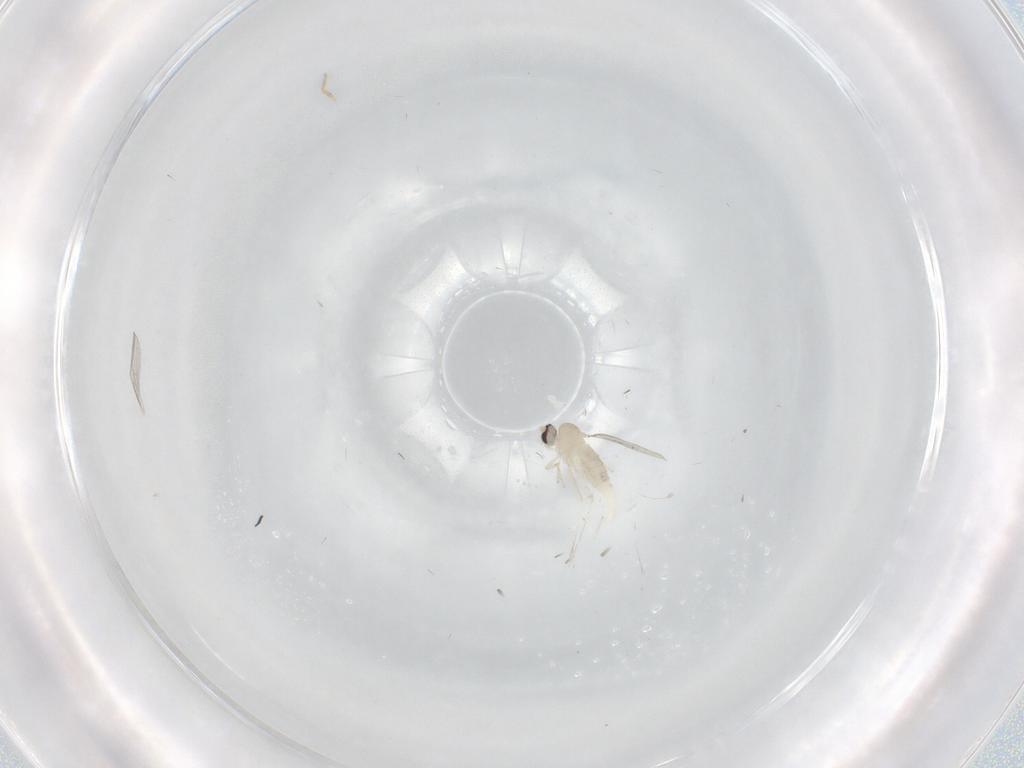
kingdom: Animalia
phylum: Arthropoda
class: Insecta
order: Diptera
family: Cecidomyiidae
